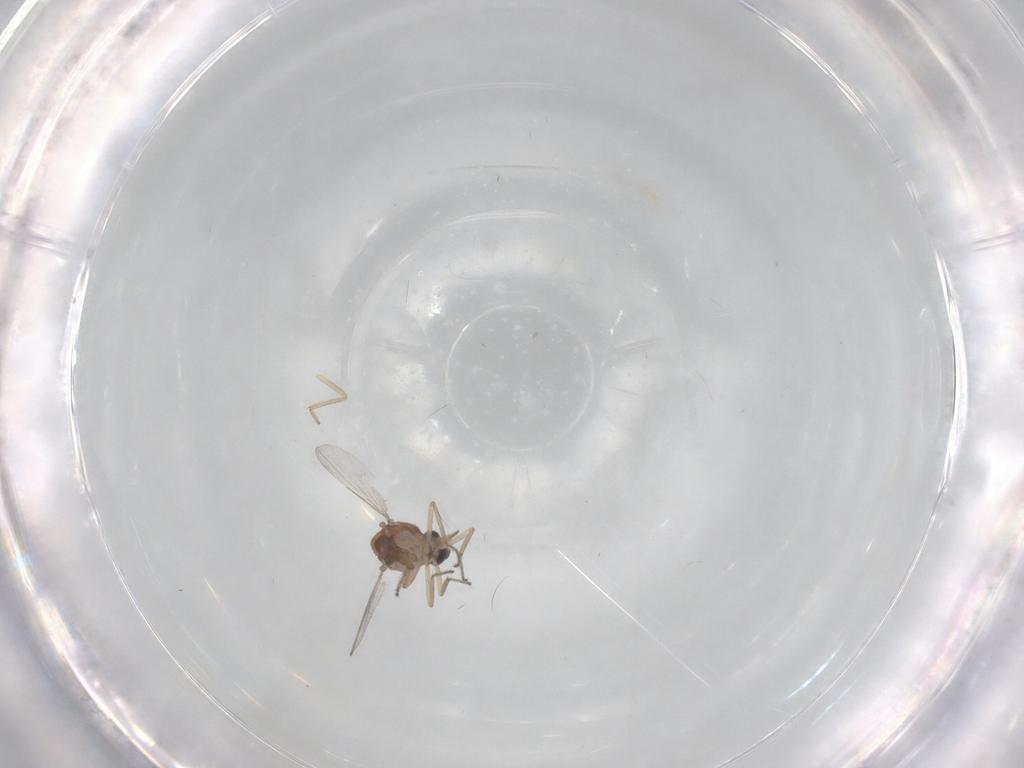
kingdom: Animalia
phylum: Arthropoda
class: Insecta
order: Diptera
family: Ceratopogonidae
